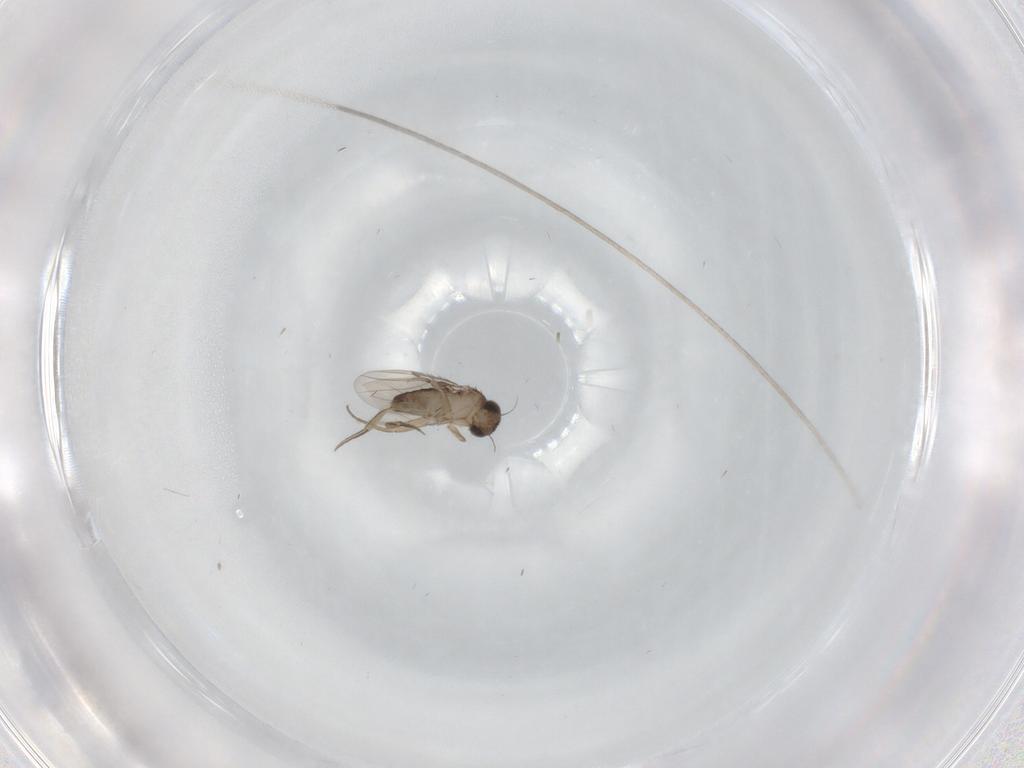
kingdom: Animalia
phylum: Arthropoda
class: Insecta
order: Diptera
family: Phoridae
